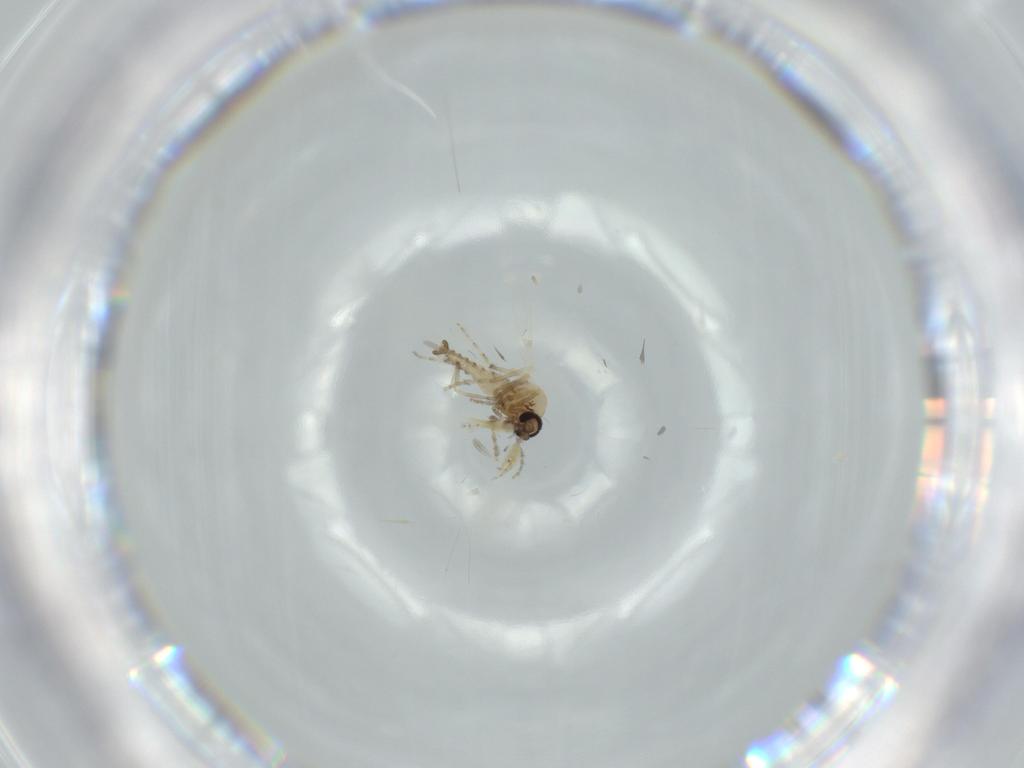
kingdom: Animalia
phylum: Arthropoda
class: Insecta
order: Diptera
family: Ceratopogonidae
